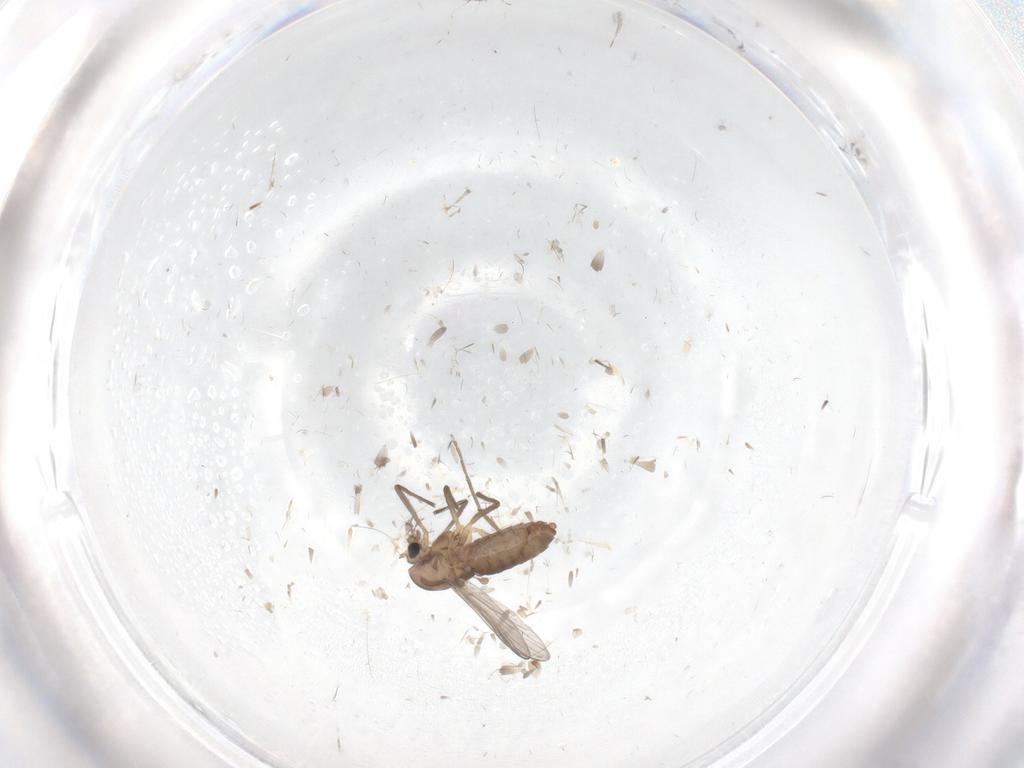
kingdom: Animalia
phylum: Arthropoda
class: Insecta
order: Diptera
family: Chironomidae
